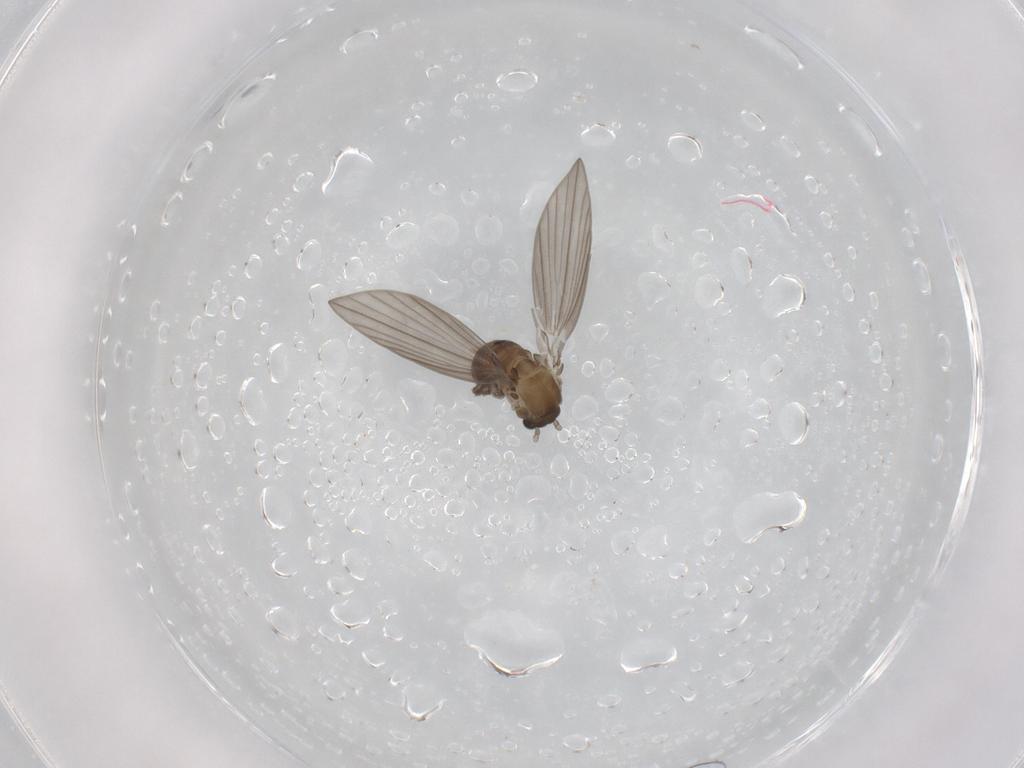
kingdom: Animalia
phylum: Arthropoda
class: Insecta
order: Diptera
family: Psychodidae
